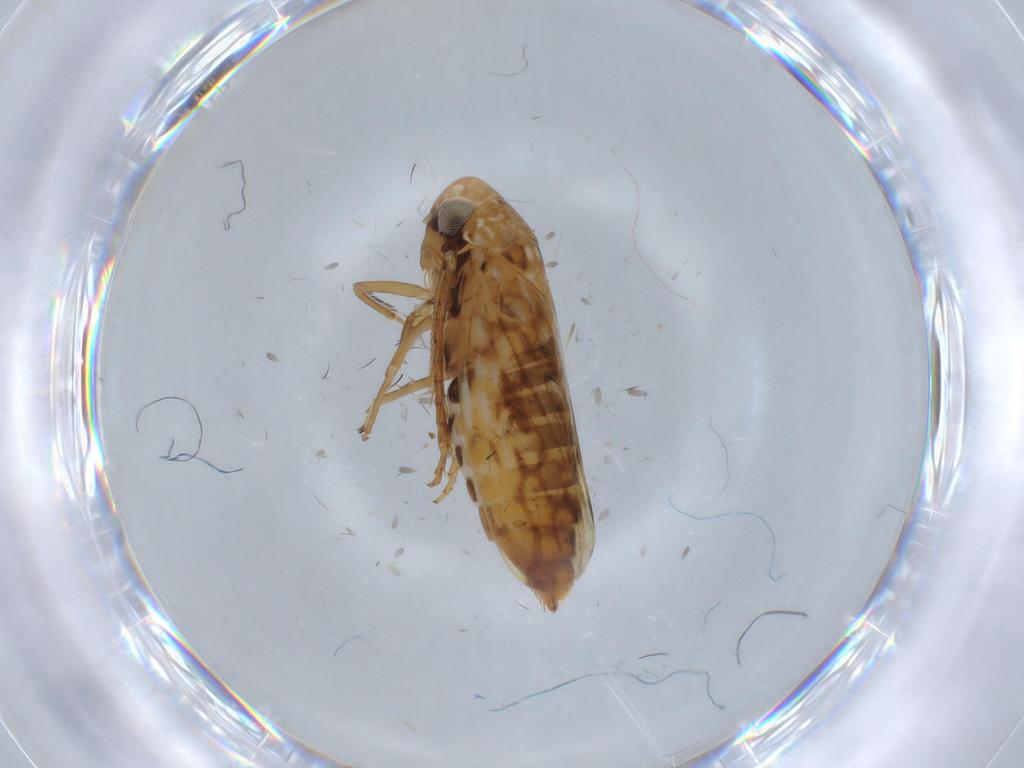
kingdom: Animalia
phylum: Arthropoda
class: Insecta
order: Hemiptera
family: Cicadellidae
